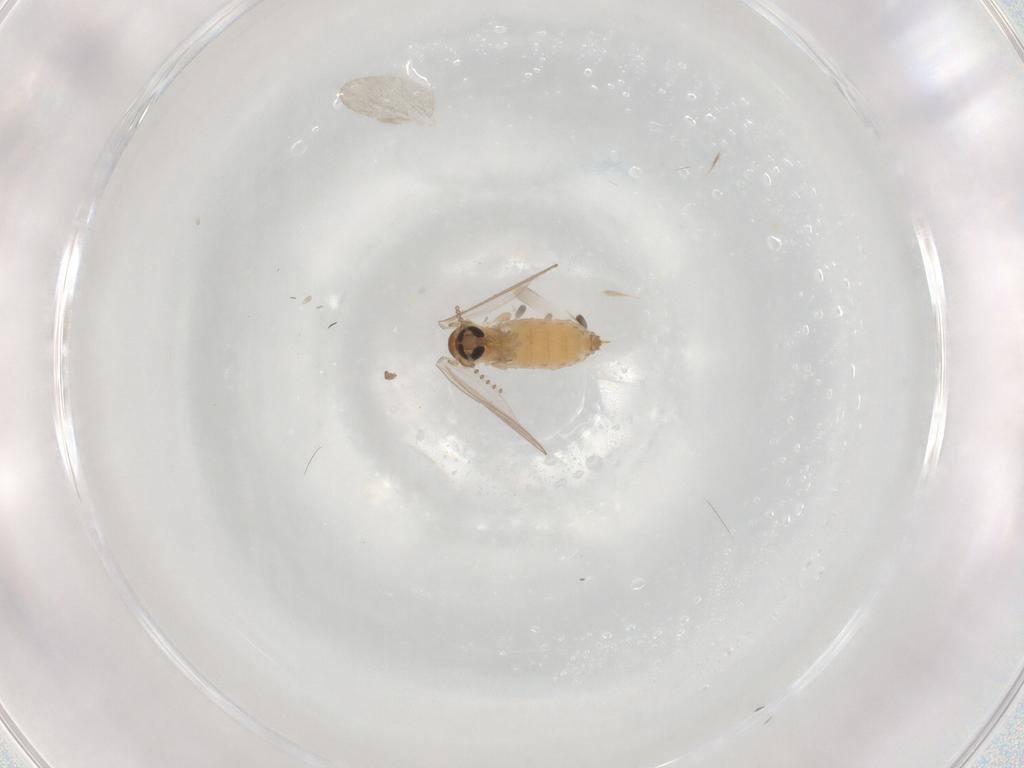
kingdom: Animalia
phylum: Arthropoda
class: Insecta
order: Diptera
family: Psychodidae
